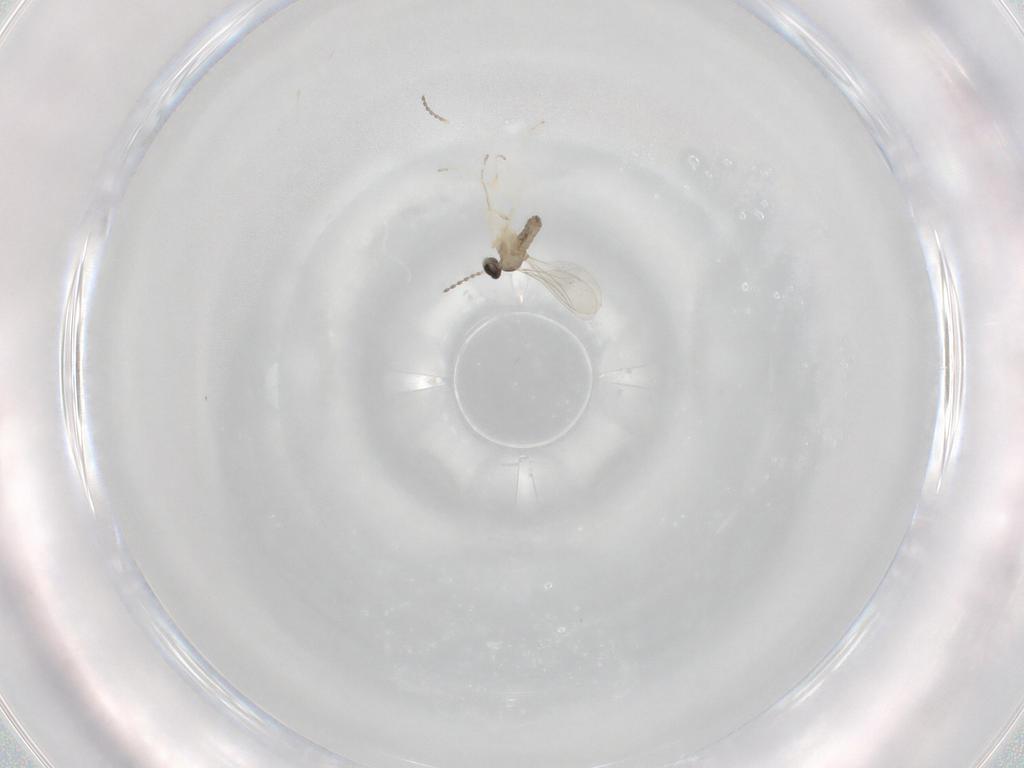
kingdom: Animalia
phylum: Arthropoda
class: Insecta
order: Diptera
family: Cecidomyiidae
